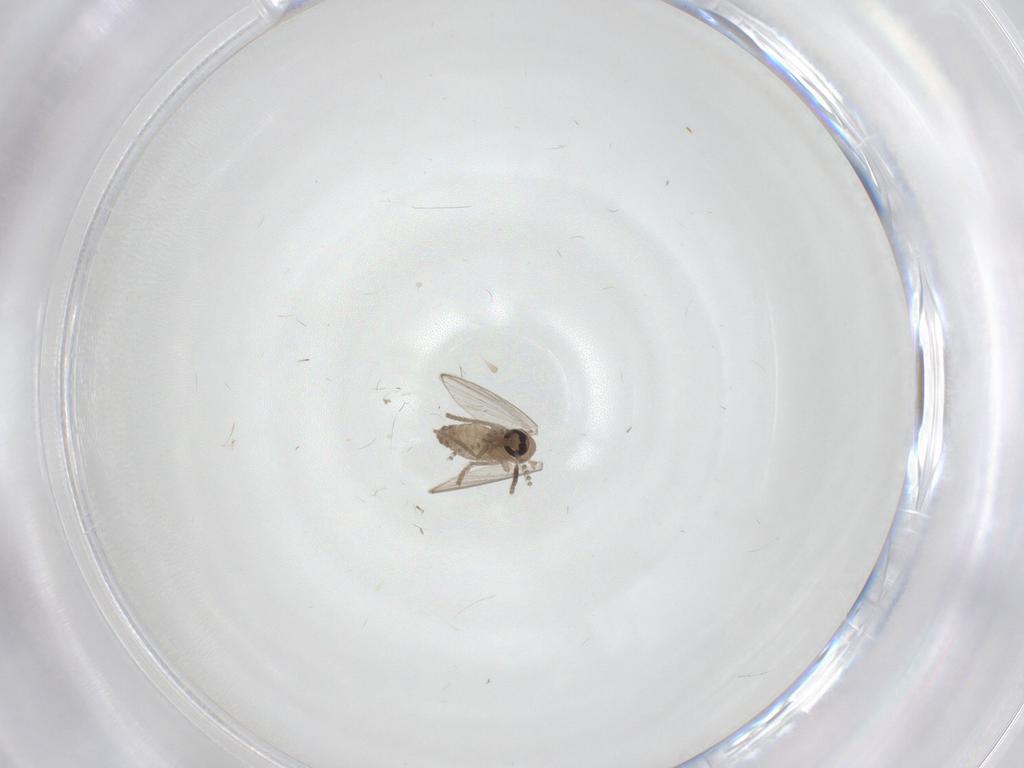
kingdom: Animalia
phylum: Arthropoda
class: Insecta
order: Diptera
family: Psychodidae
